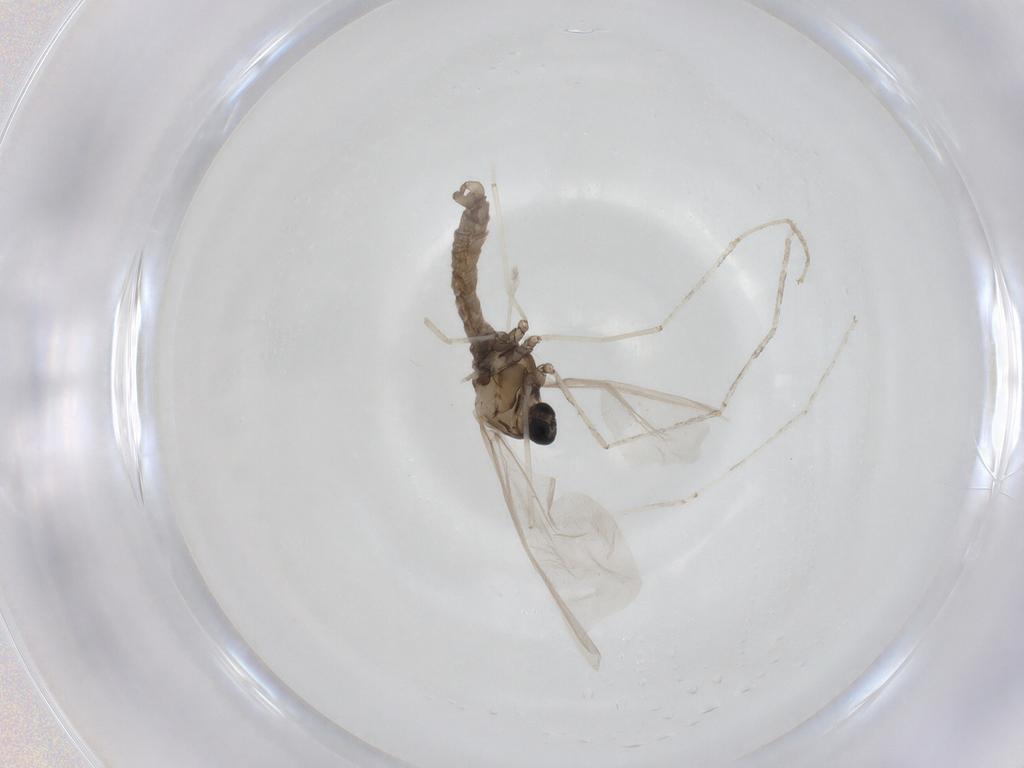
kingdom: Animalia
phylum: Arthropoda
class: Insecta
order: Diptera
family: Cecidomyiidae
